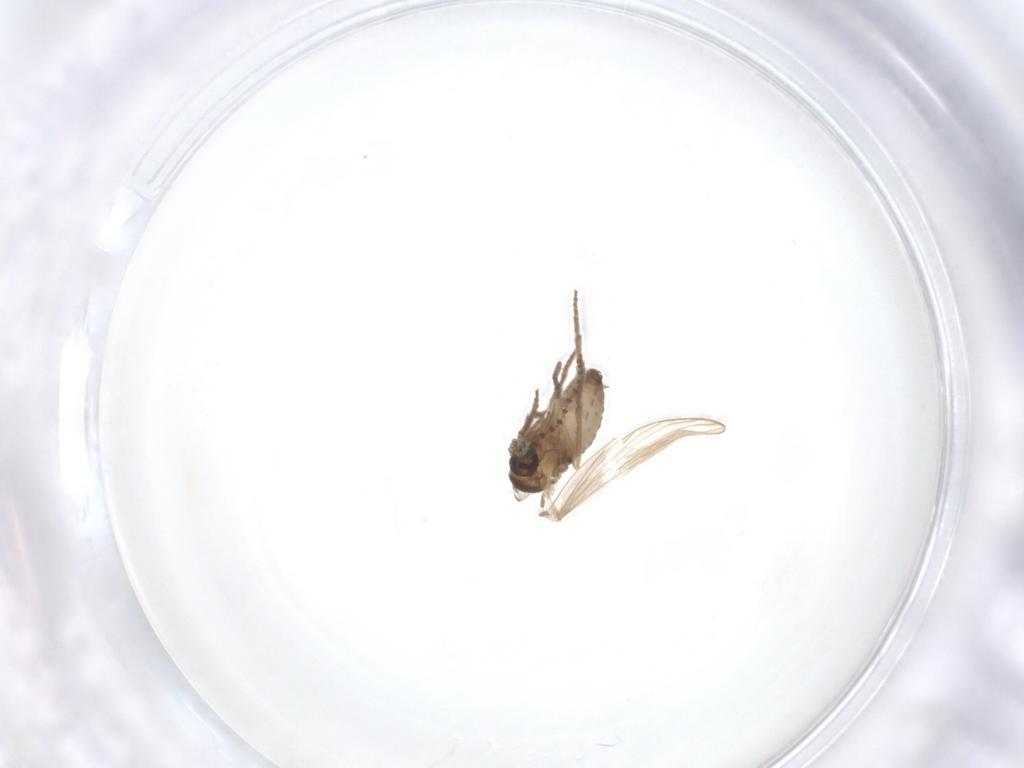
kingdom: Animalia
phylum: Arthropoda
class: Insecta
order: Diptera
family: Psychodidae
